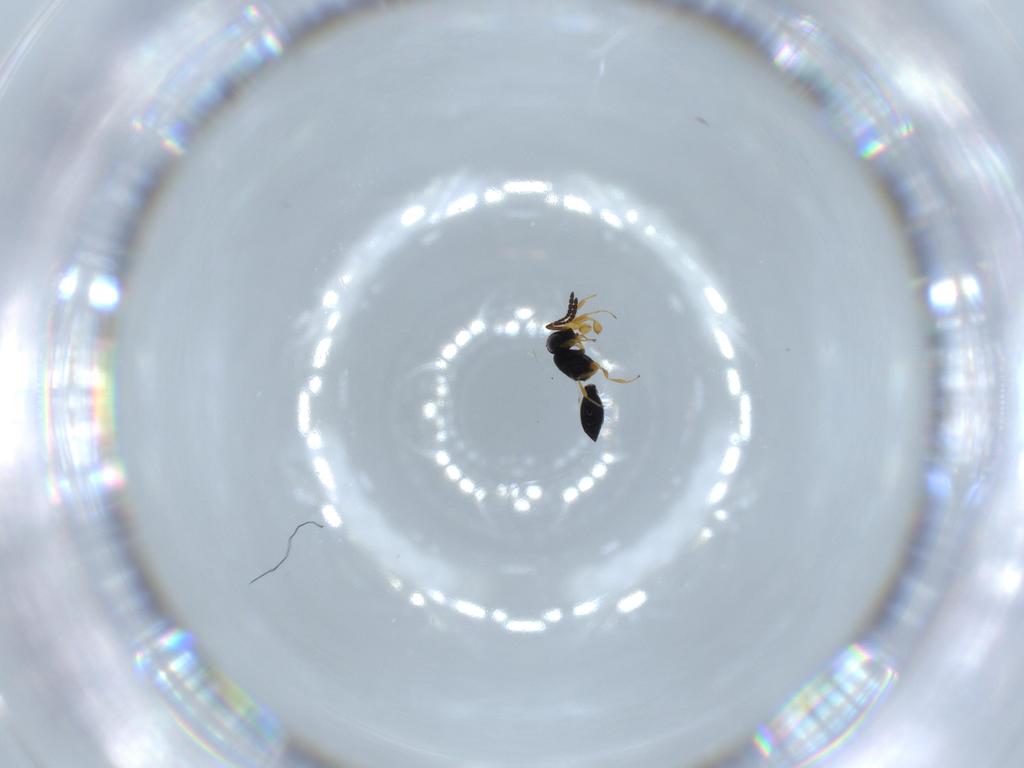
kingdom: Animalia
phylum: Arthropoda
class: Insecta
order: Hymenoptera
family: Scelionidae
